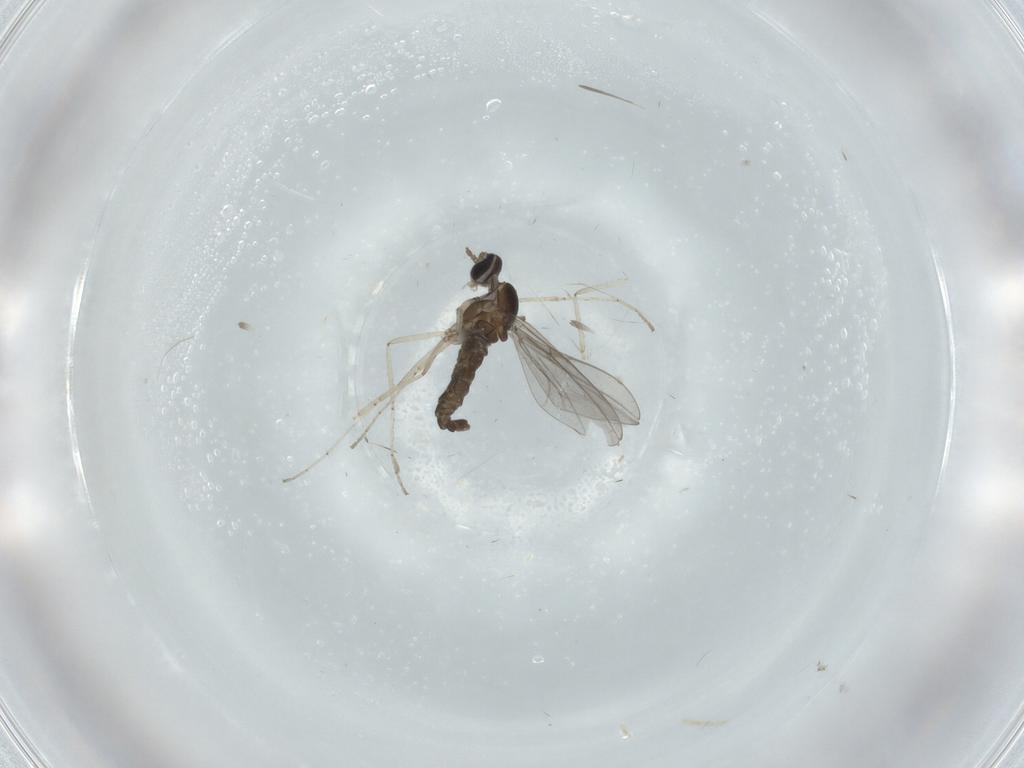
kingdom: Animalia
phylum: Arthropoda
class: Insecta
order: Diptera
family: Cecidomyiidae
